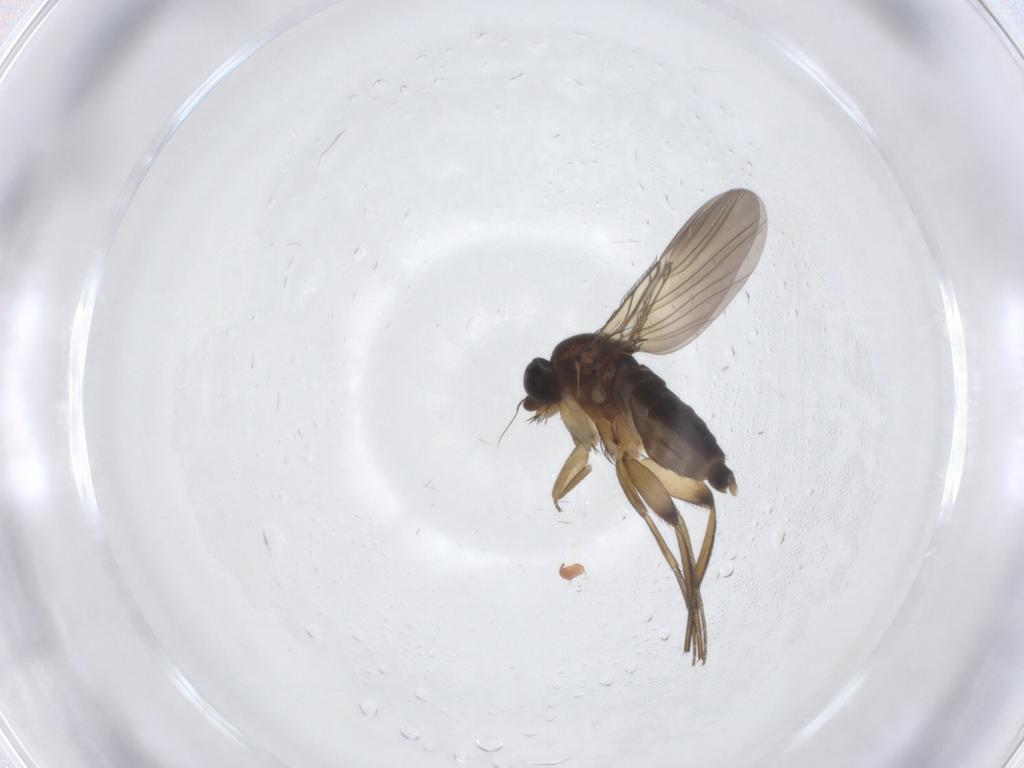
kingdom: Animalia
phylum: Arthropoda
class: Insecta
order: Diptera
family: Phoridae
